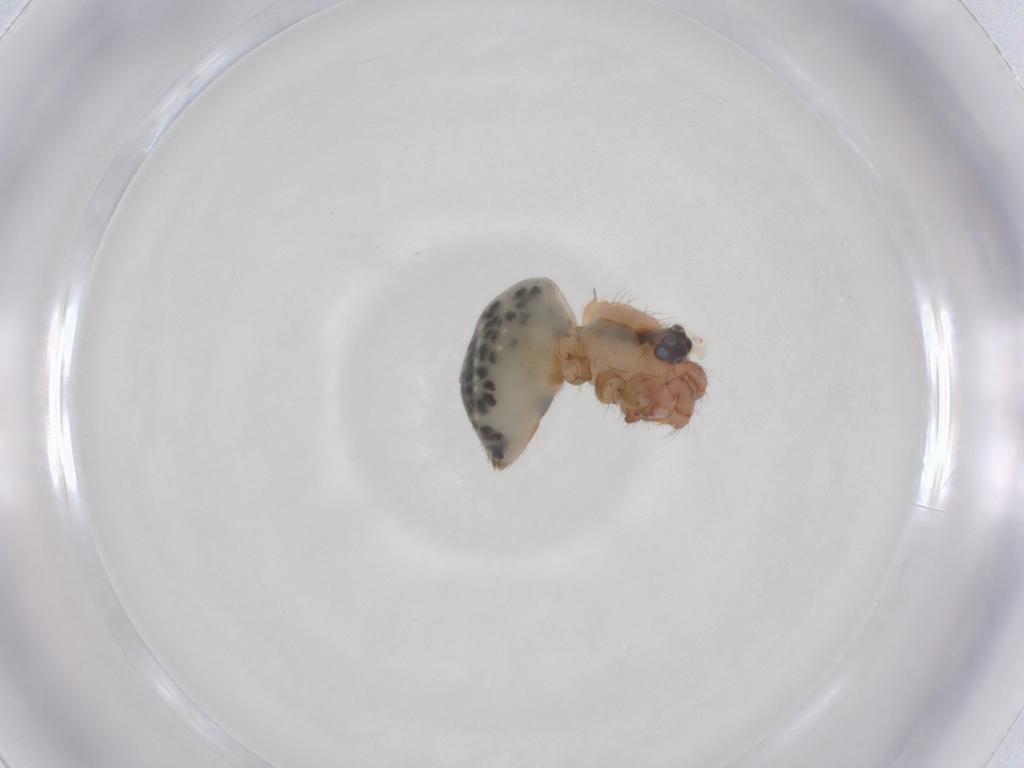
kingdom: Animalia
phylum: Arthropoda
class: Arachnida
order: Araneae
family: Pholcidae
